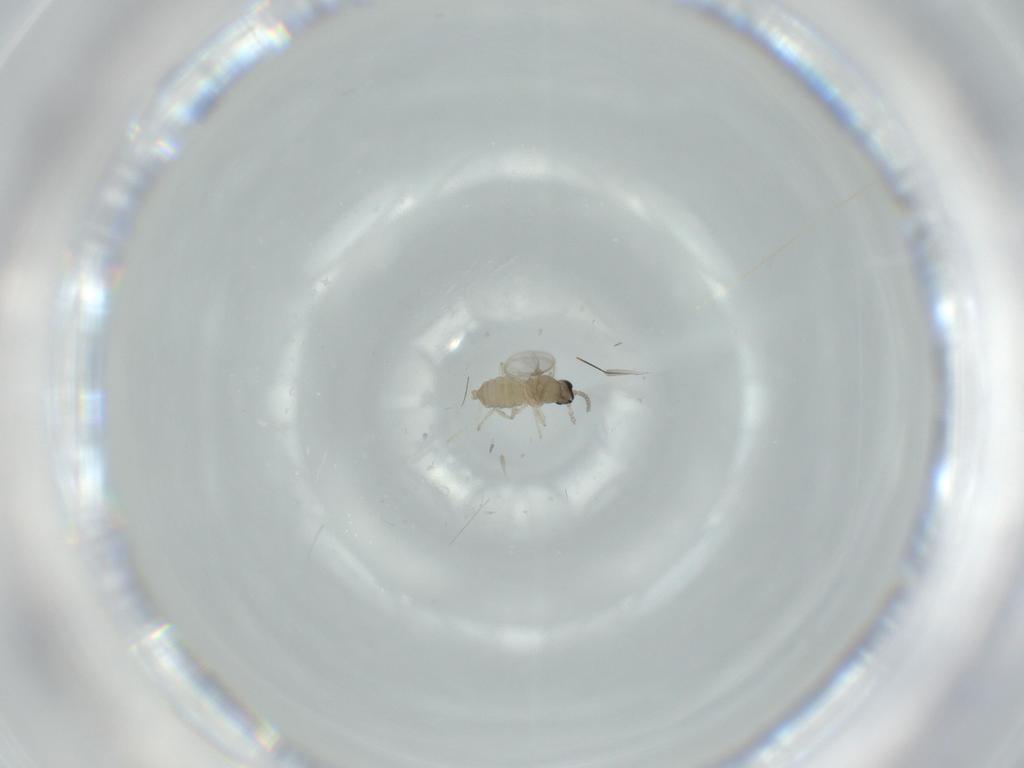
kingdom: Animalia
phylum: Arthropoda
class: Insecta
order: Diptera
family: Cecidomyiidae
